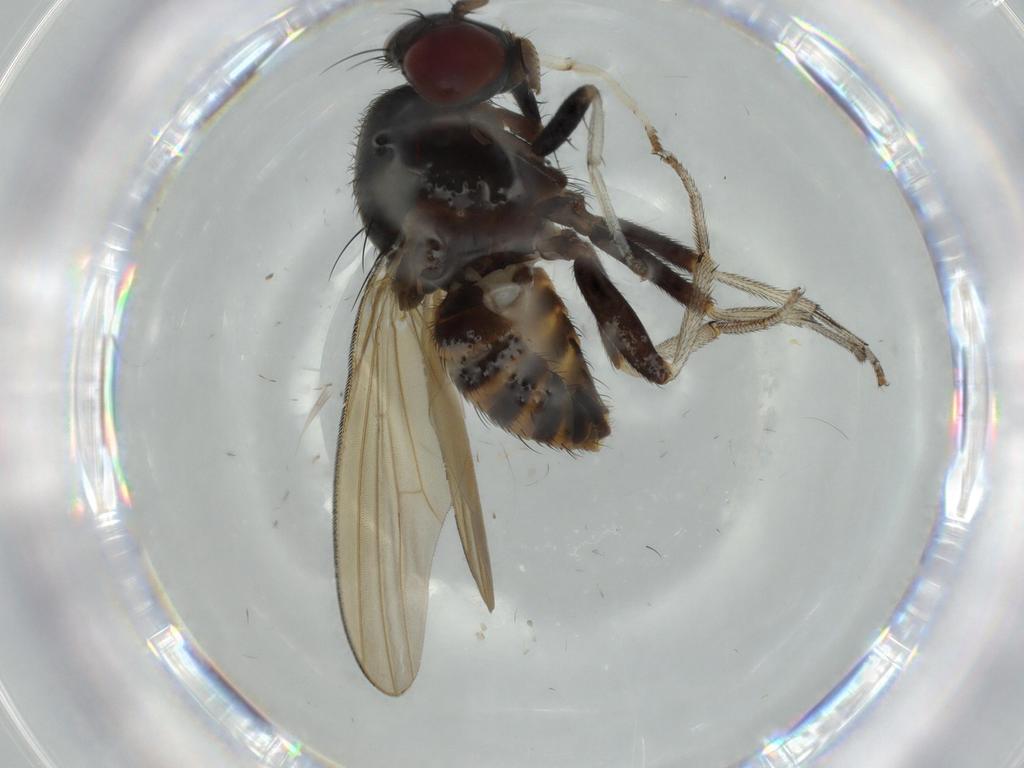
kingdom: Animalia
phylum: Arthropoda
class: Insecta
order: Diptera
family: Cecidomyiidae
